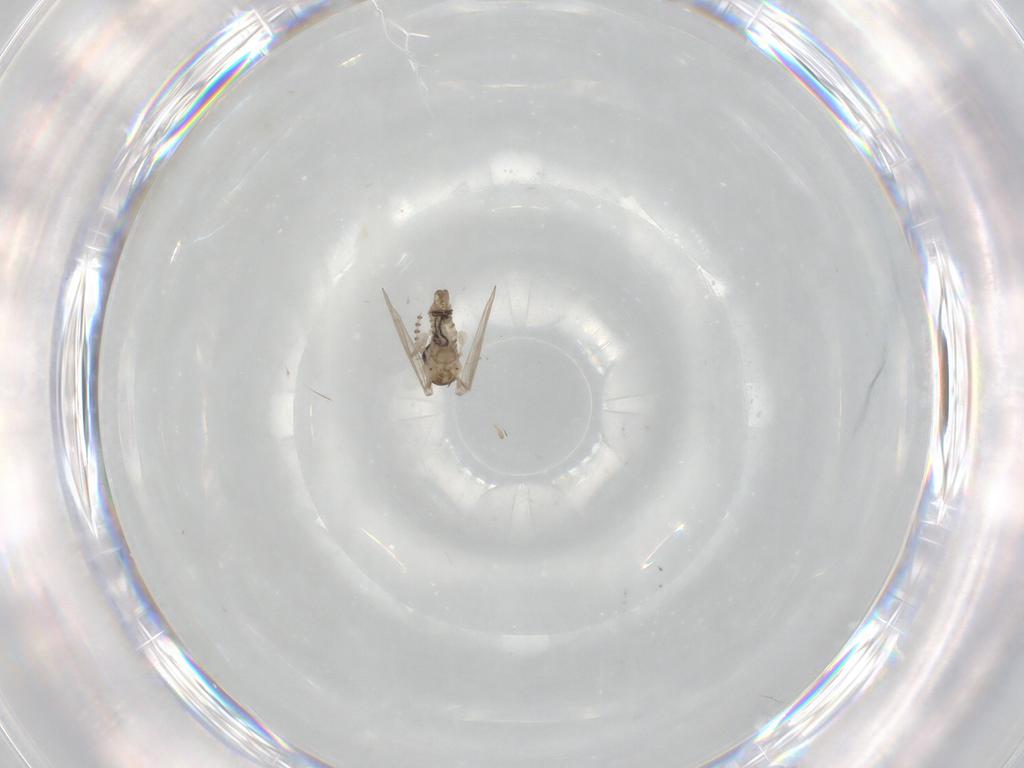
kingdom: Animalia
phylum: Arthropoda
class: Insecta
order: Diptera
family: Psychodidae
